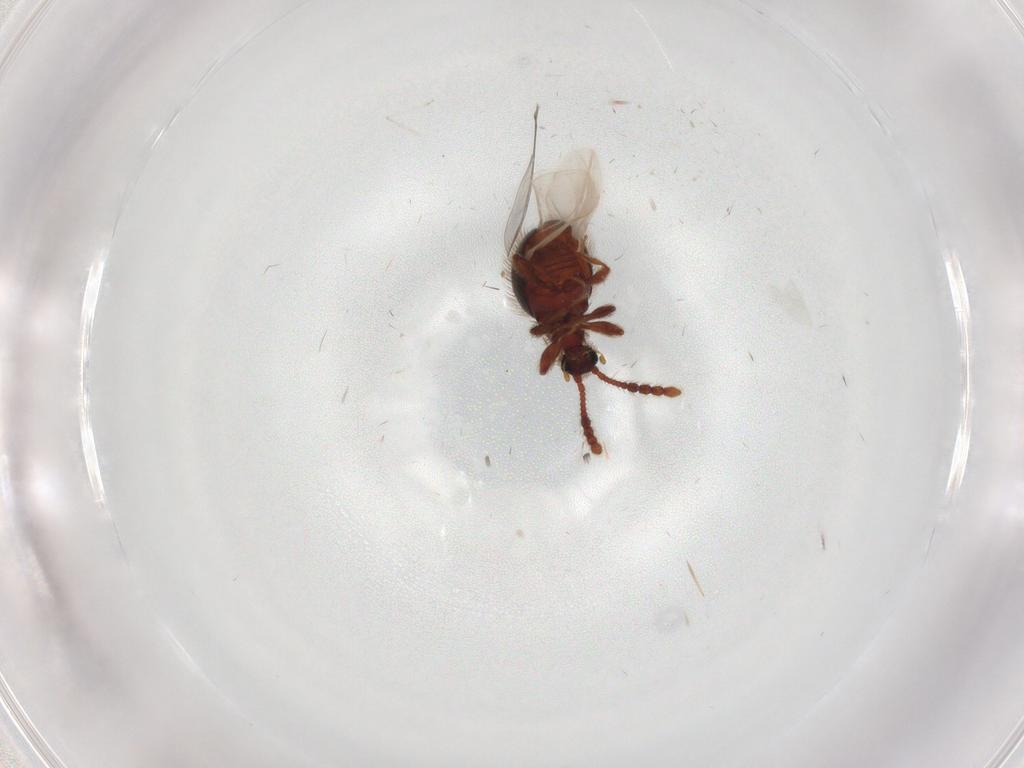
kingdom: Animalia
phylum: Arthropoda
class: Insecta
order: Coleoptera
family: Staphylinidae
